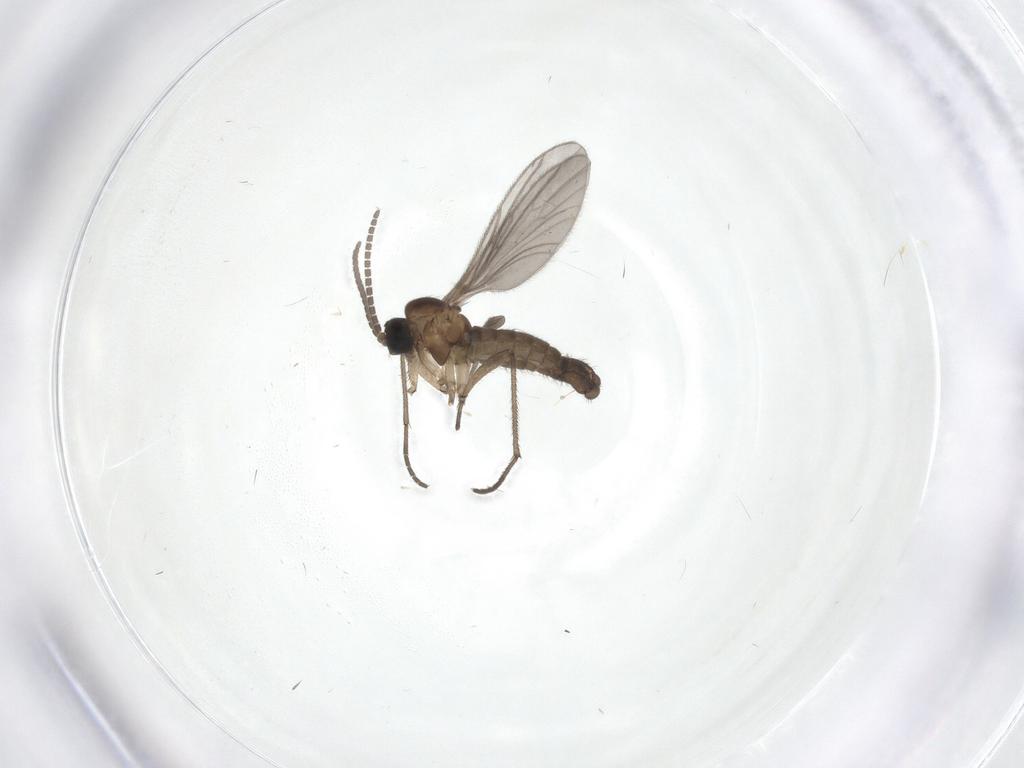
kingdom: Animalia
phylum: Arthropoda
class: Insecta
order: Diptera
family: Sciaridae
